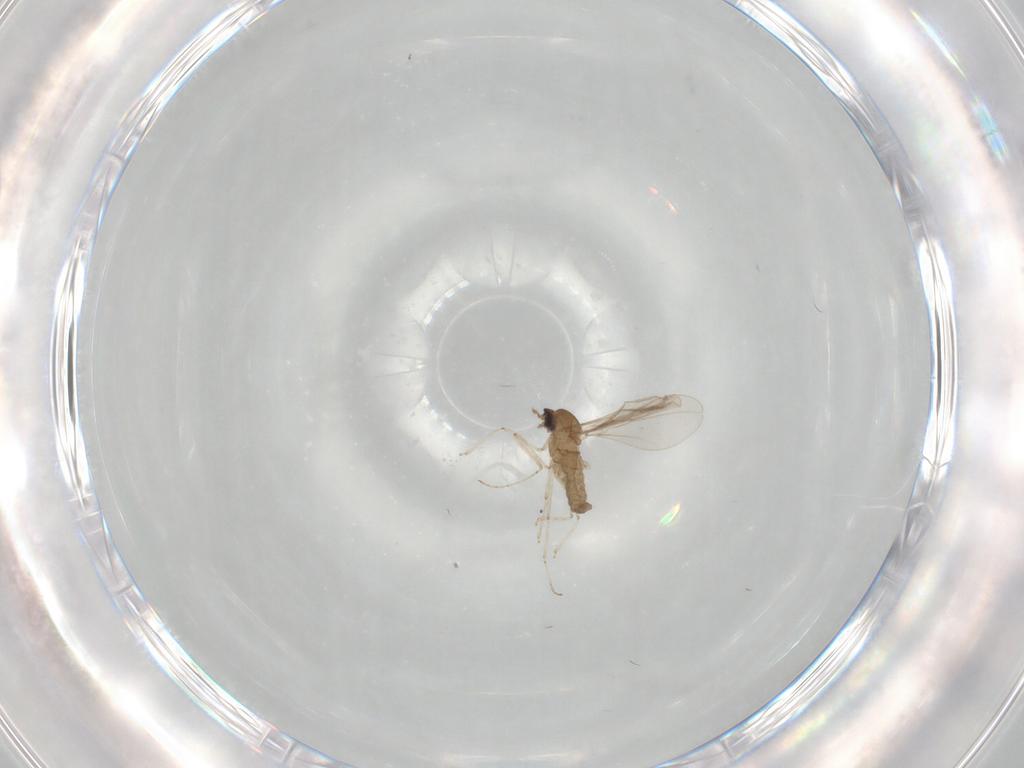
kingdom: Animalia
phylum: Arthropoda
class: Insecta
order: Diptera
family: Cecidomyiidae
